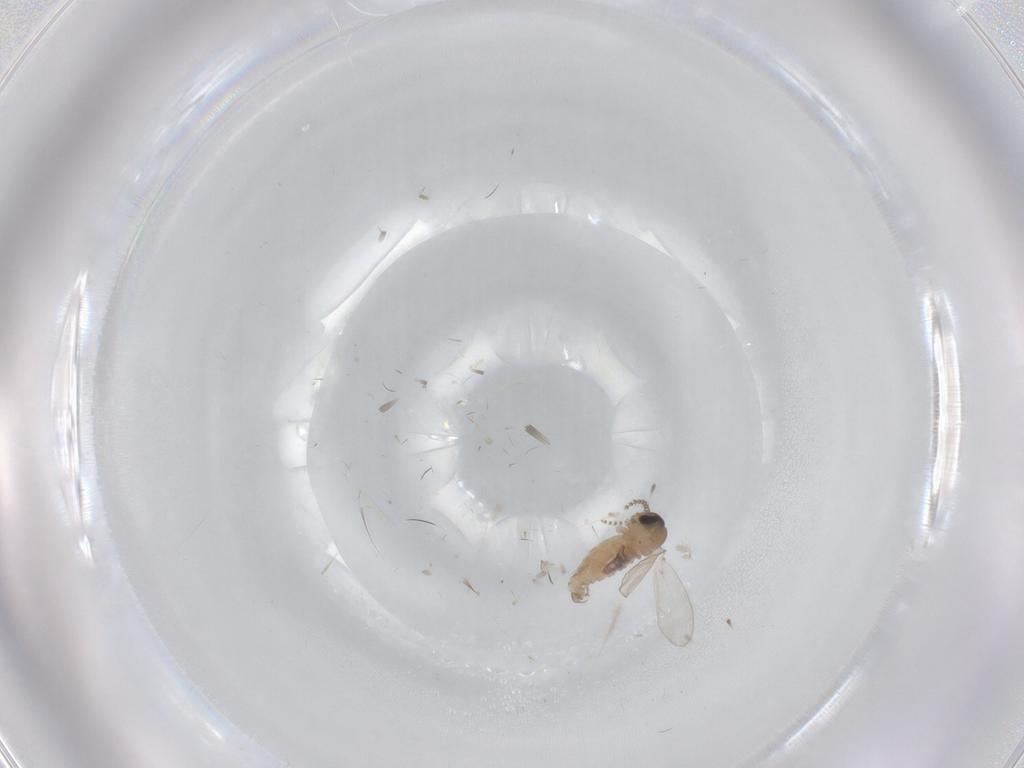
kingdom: Animalia
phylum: Arthropoda
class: Insecta
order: Diptera
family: Psychodidae
